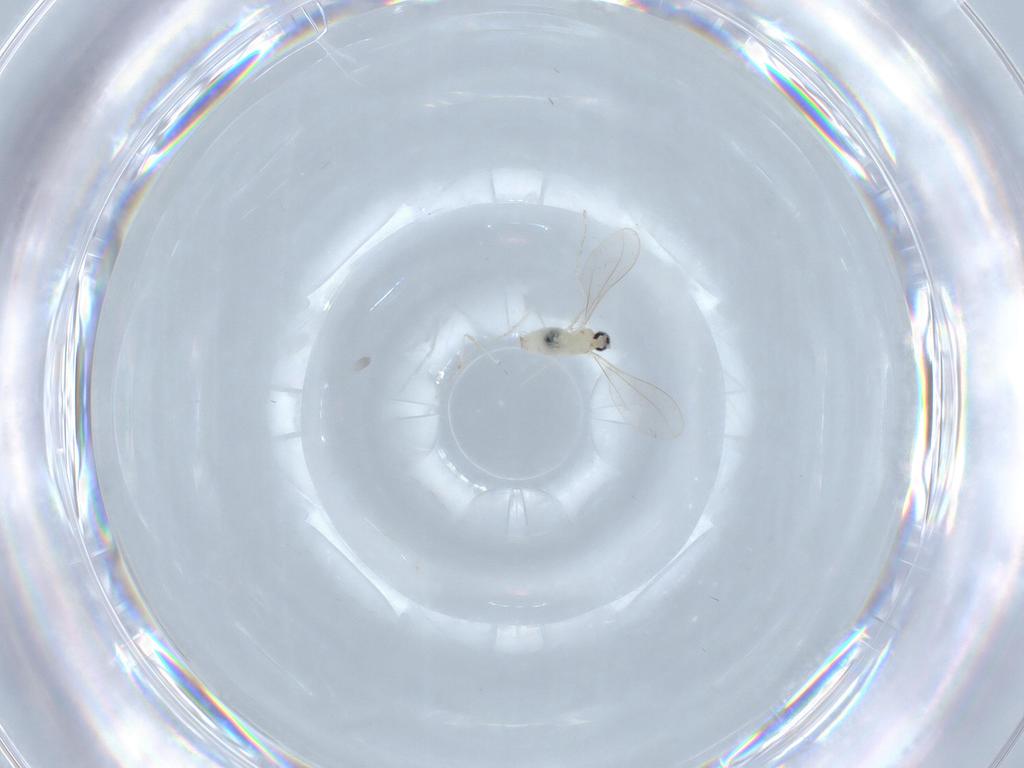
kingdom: Animalia
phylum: Arthropoda
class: Insecta
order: Diptera
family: Cecidomyiidae
